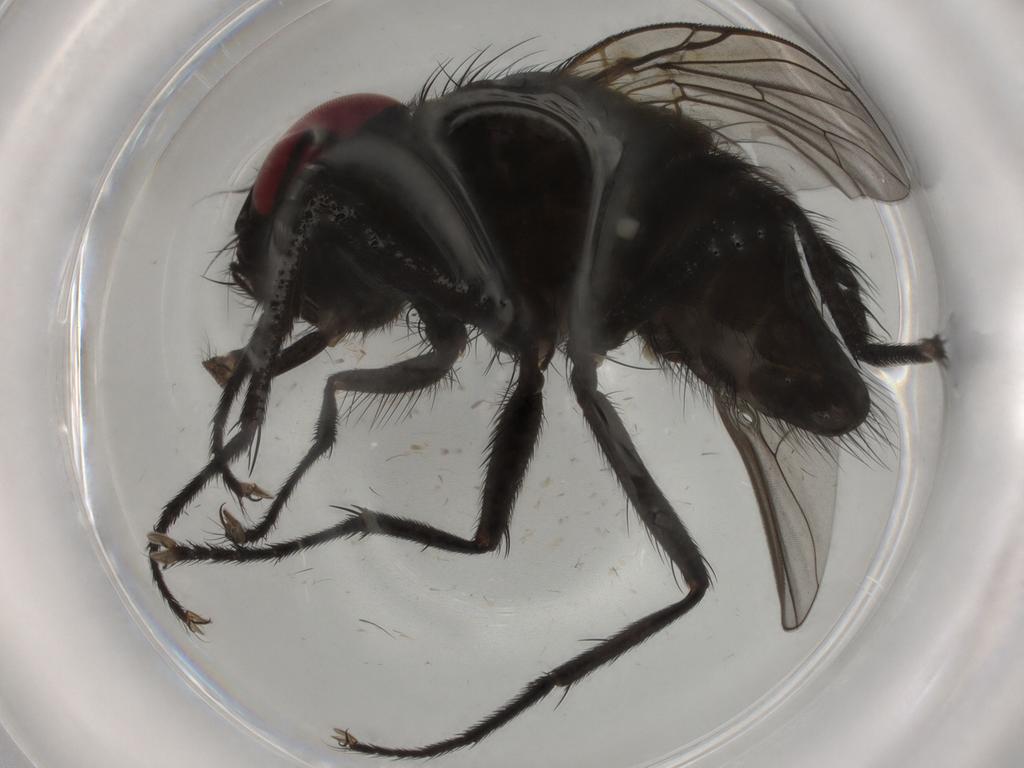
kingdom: Animalia
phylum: Arthropoda
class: Insecta
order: Diptera
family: Muscidae
